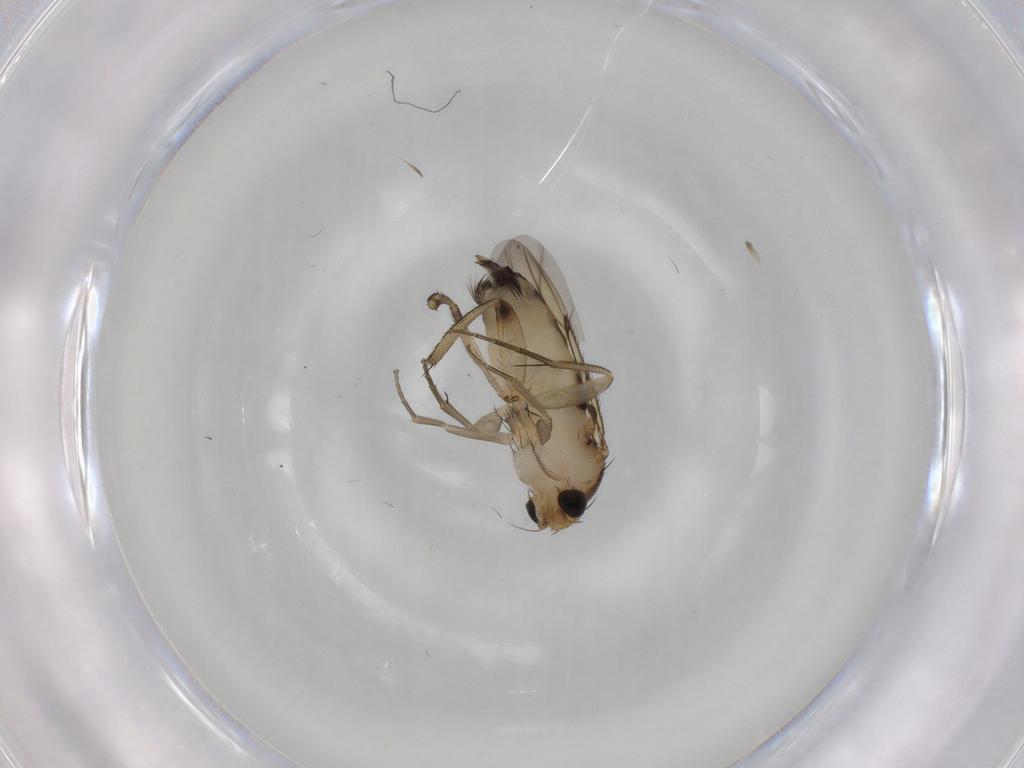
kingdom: Animalia
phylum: Arthropoda
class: Insecta
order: Diptera
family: Phoridae
